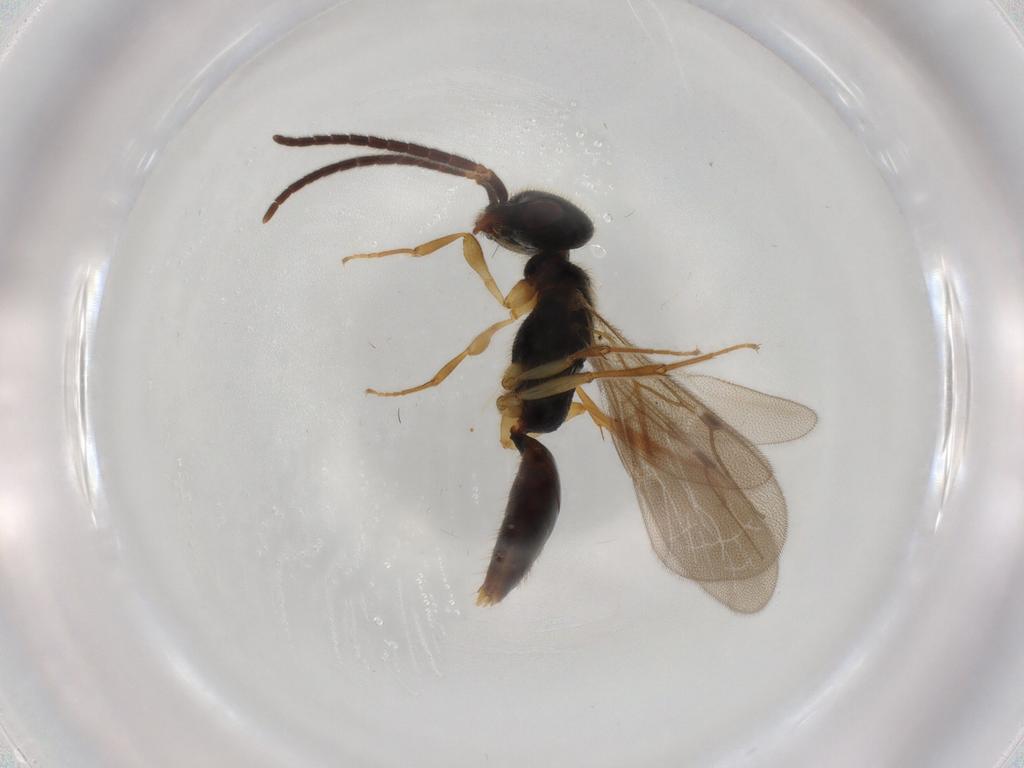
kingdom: Animalia
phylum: Arthropoda
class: Insecta
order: Hymenoptera
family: Bethylidae
